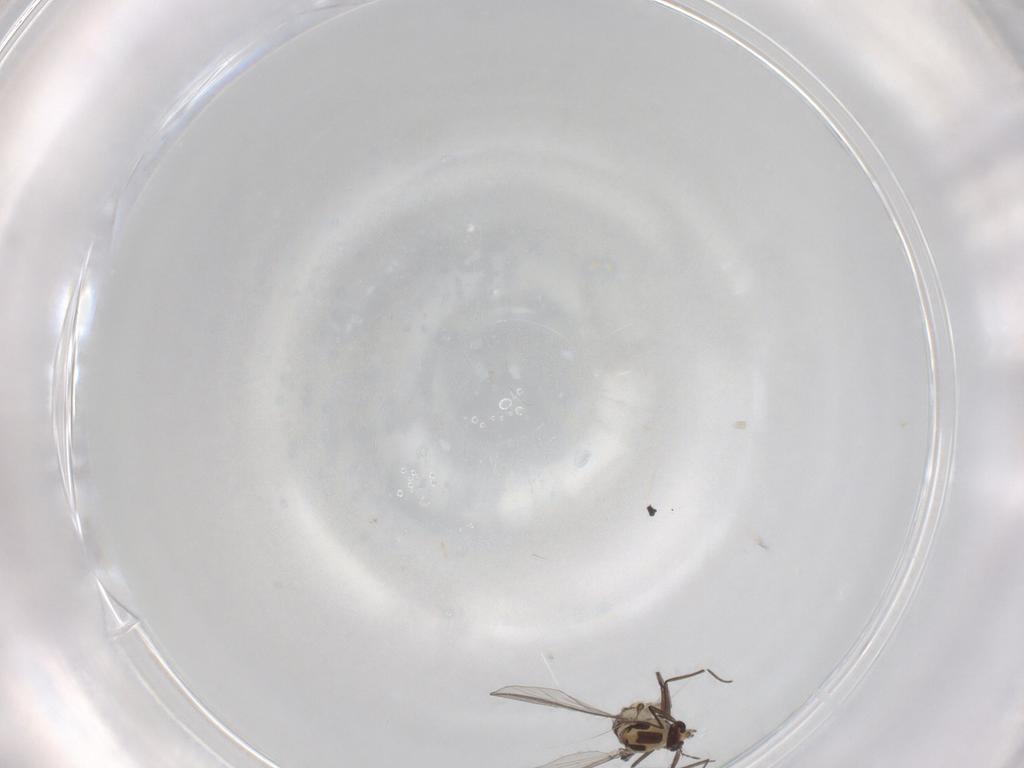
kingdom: Animalia
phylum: Arthropoda
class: Insecta
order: Diptera
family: Chironomidae
